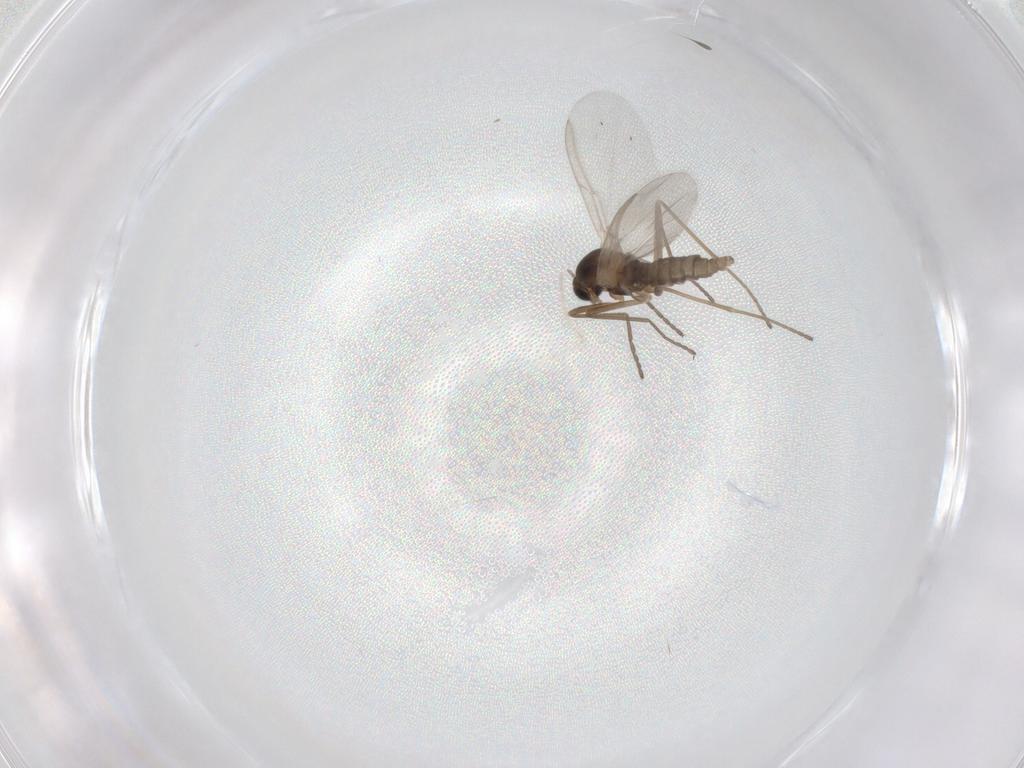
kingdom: Animalia
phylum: Arthropoda
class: Insecta
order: Diptera
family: Cecidomyiidae
